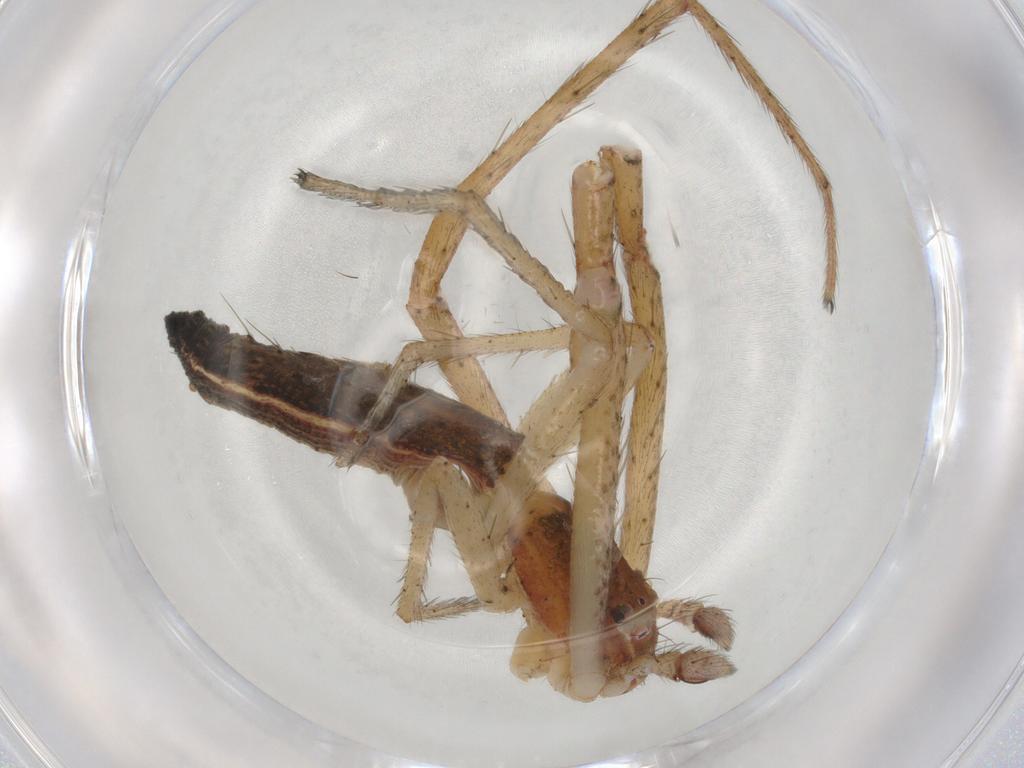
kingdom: Animalia
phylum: Arthropoda
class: Arachnida
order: Araneae
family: Thomisidae
